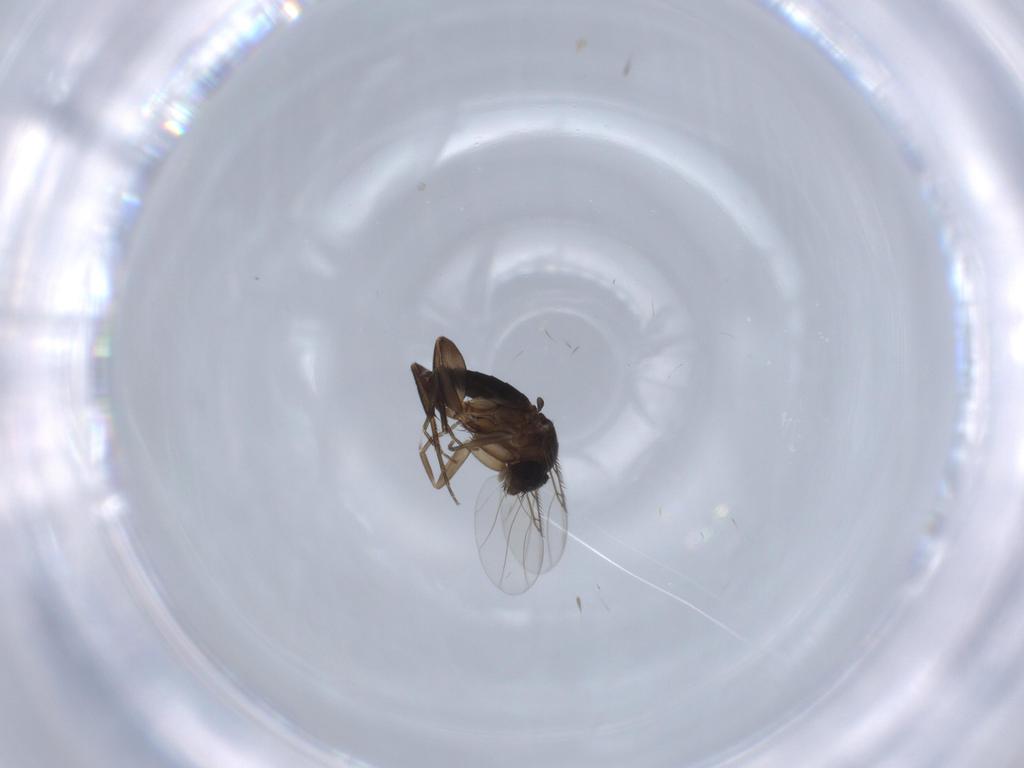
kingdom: Animalia
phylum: Arthropoda
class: Insecta
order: Diptera
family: Phoridae
